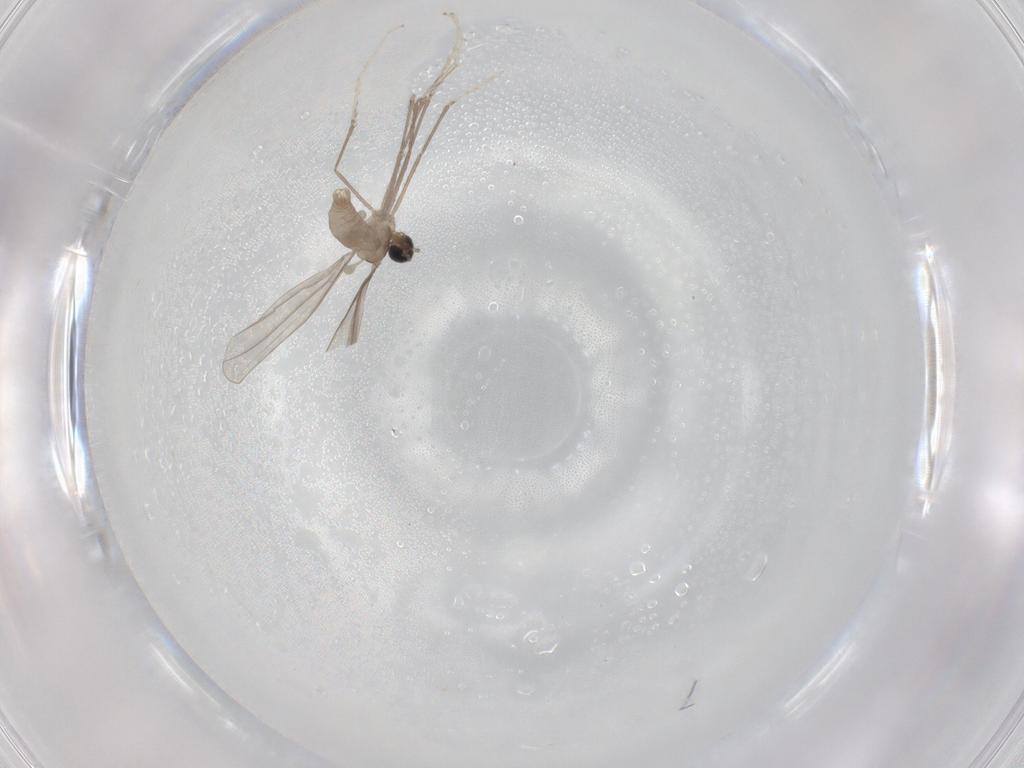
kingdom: Animalia
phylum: Arthropoda
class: Insecta
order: Diptera
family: Cecidomyiidae
